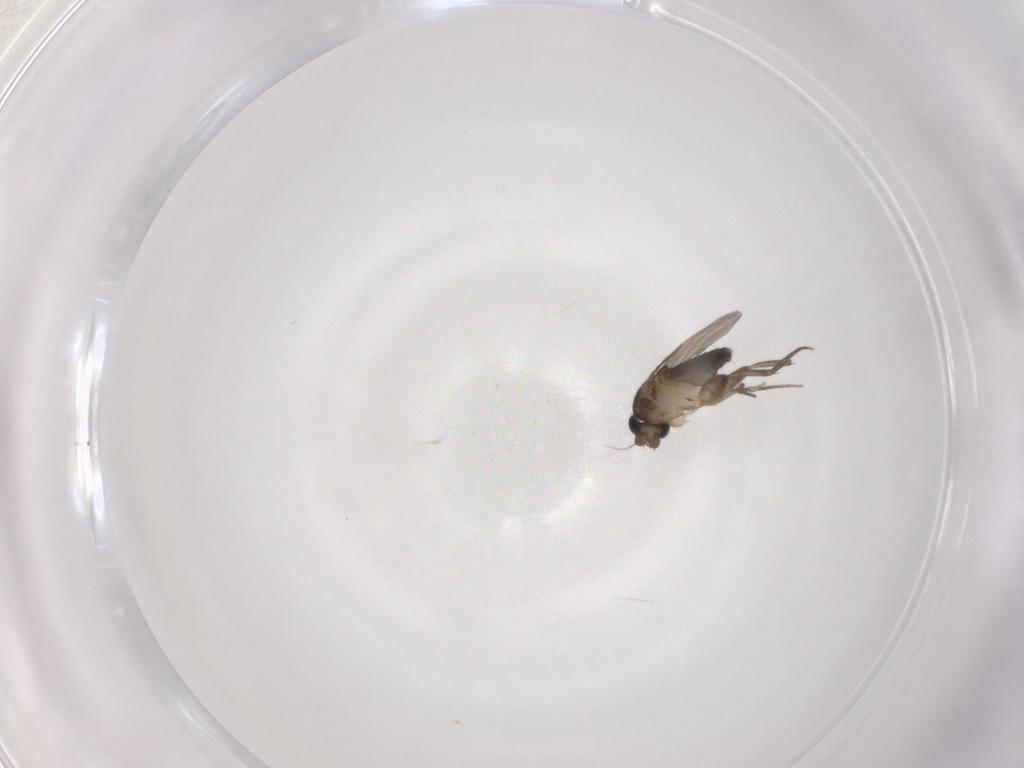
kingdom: Animalia
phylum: Arthropoda
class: Insecta
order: Diptera
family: Phoridae
